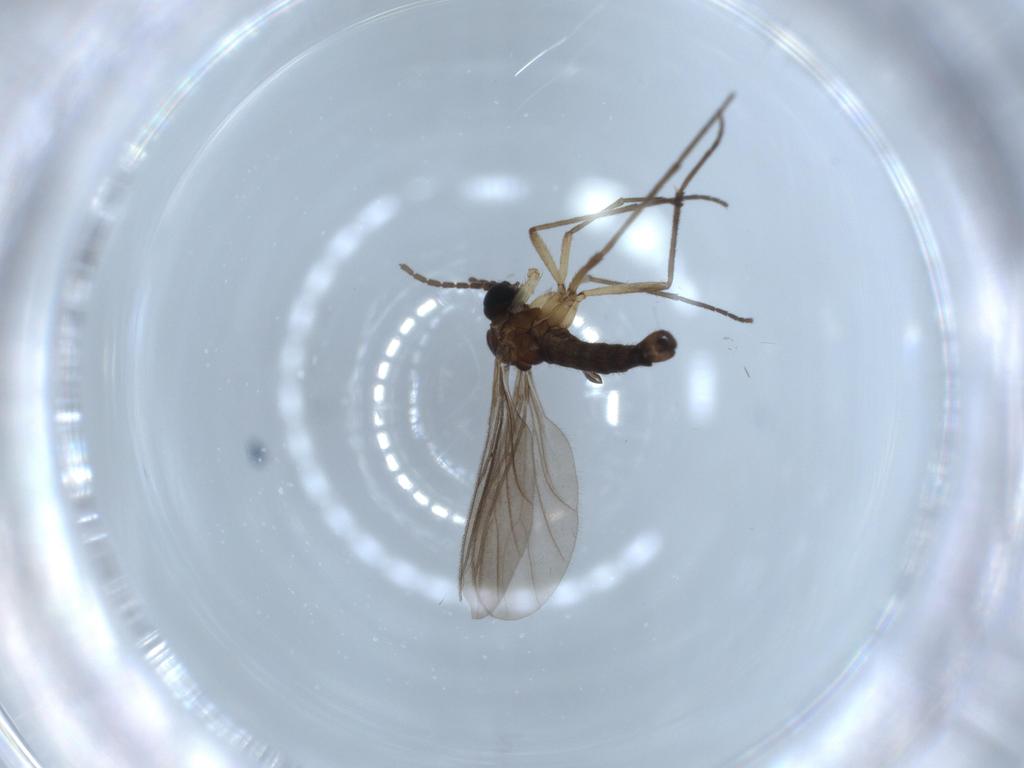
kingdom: Animalia
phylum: Arthropoda
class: Insecta
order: Diptera
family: Sciaridae
